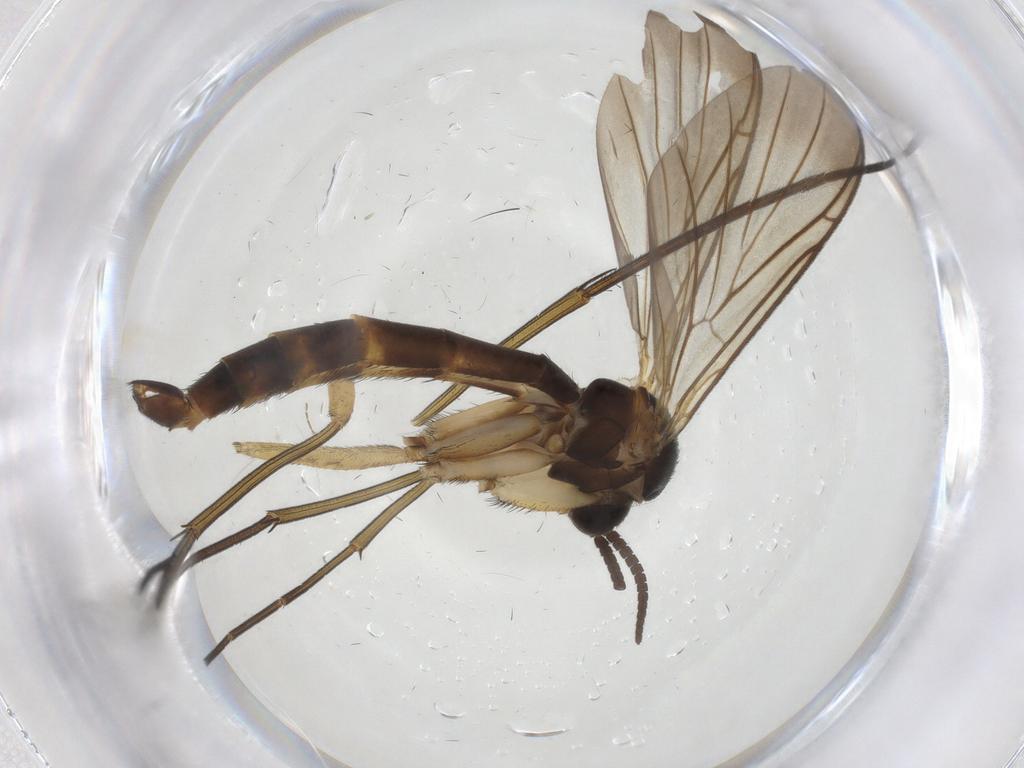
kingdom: Animalia
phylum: Arthropoda
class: Insecta
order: Diptera
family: Keroplatidae
